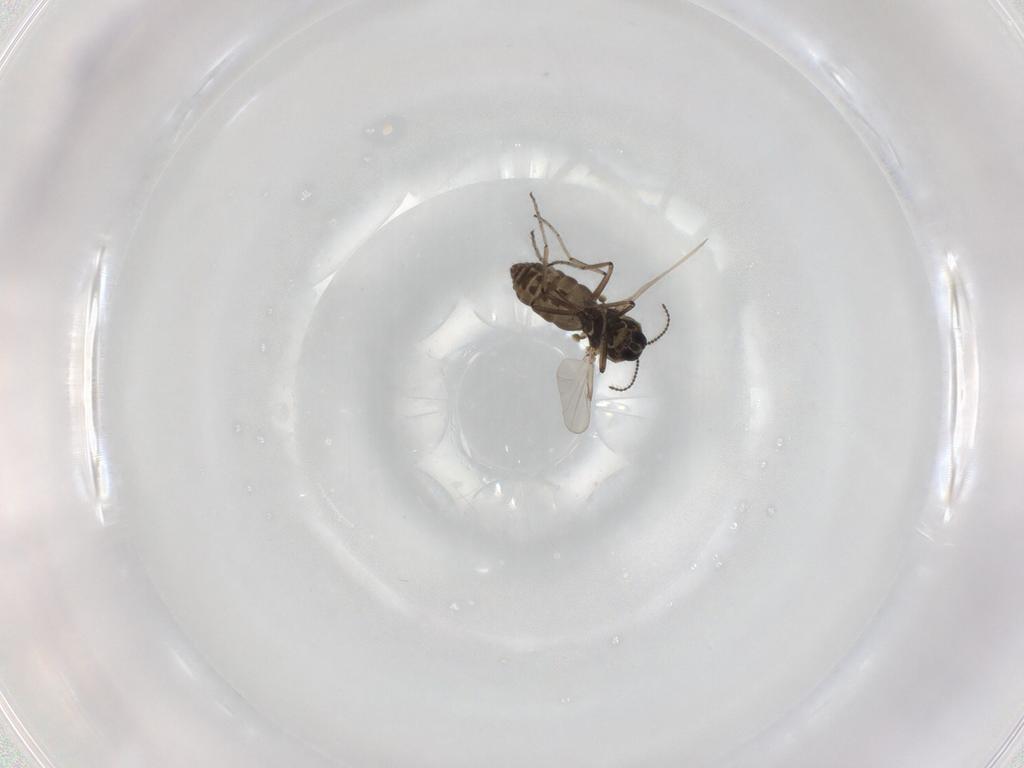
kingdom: Animalia
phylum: Arthropoda
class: Insecta
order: Diptera
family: Ceratopogonidae
